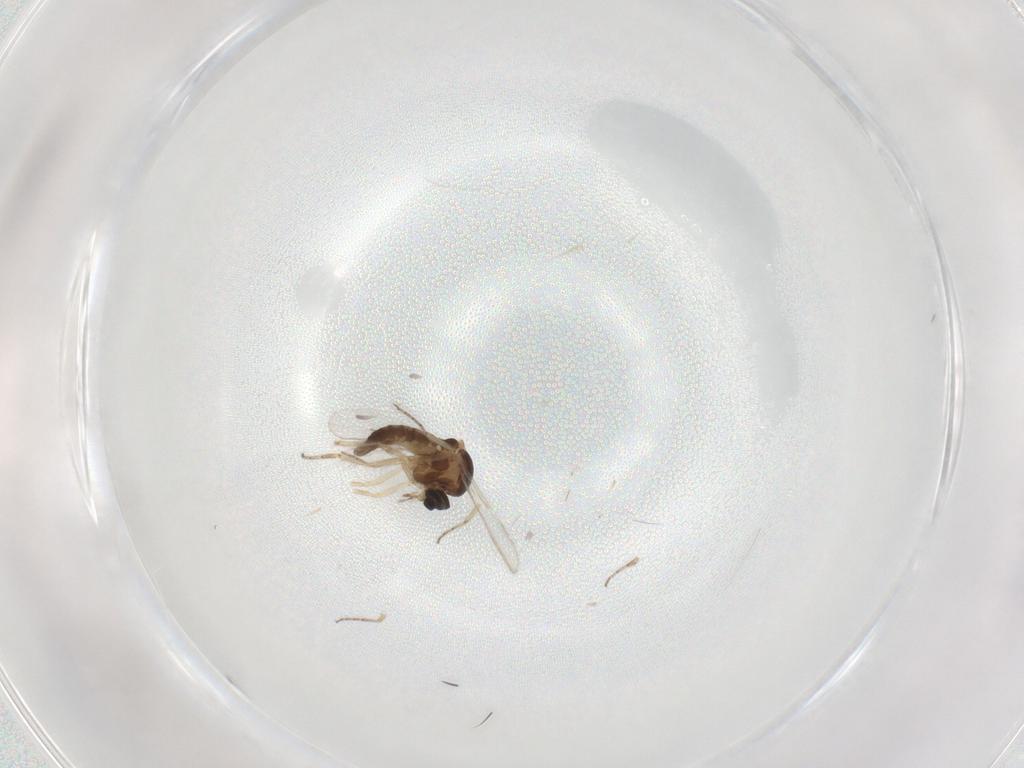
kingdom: Animalia
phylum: Arthropoda
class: Insecta
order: Diptera
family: Ceratopogonidae
